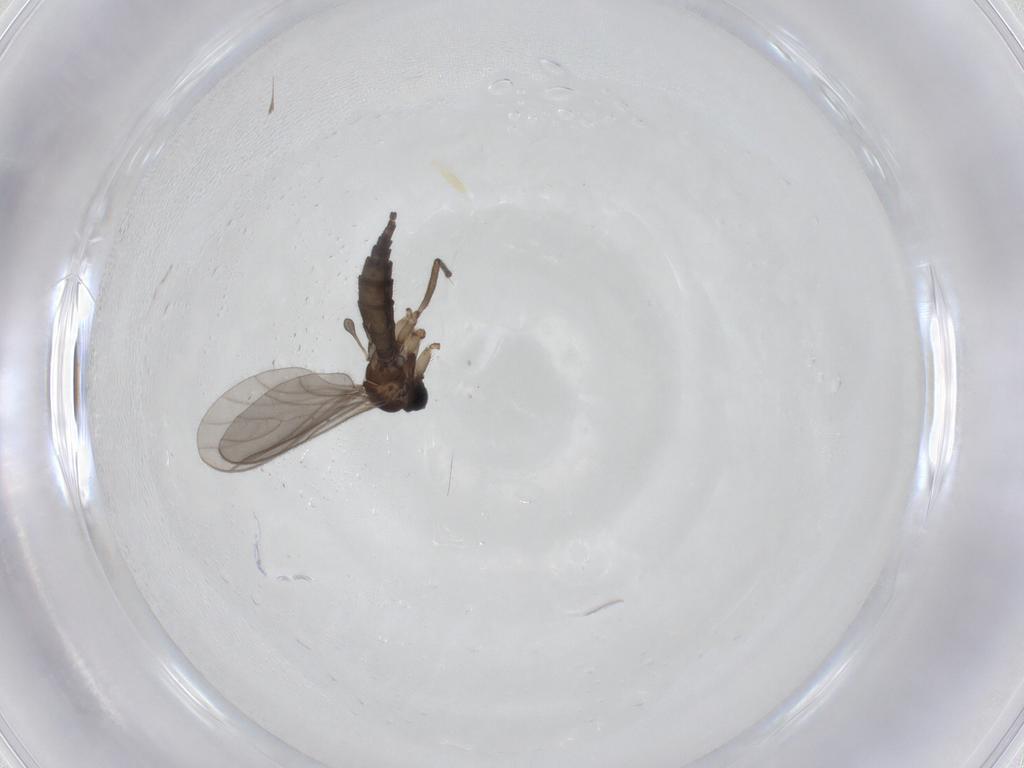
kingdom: Animalia
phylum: Arthropoda
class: Insecta
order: Diptera
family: Sciaridae
